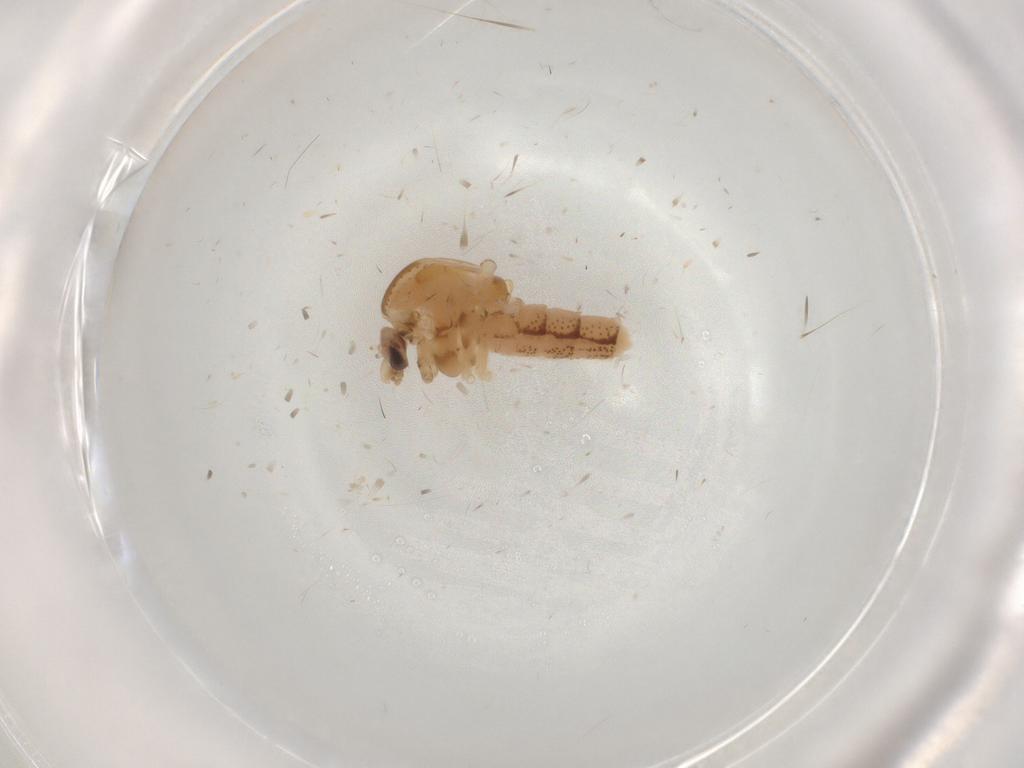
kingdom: Animalia
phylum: Arthropoda
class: Insecta
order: Diptera
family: Chaoboridae
